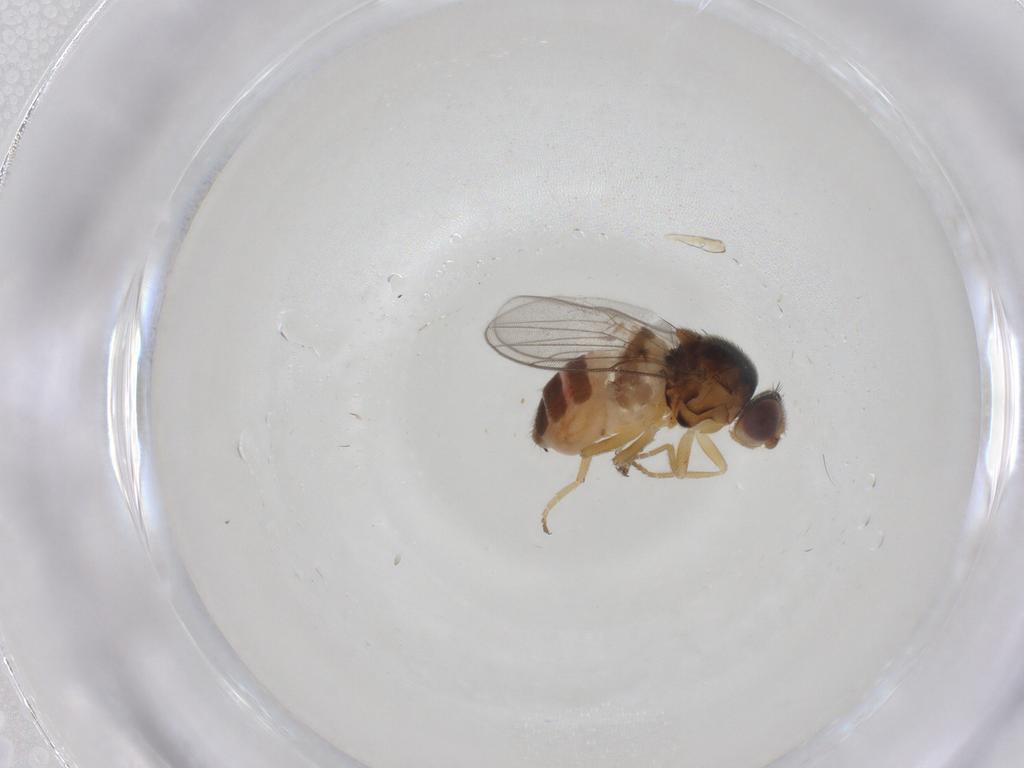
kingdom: Animalia
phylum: Arthropoda
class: Insecta
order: Diptera
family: Chloropidae
